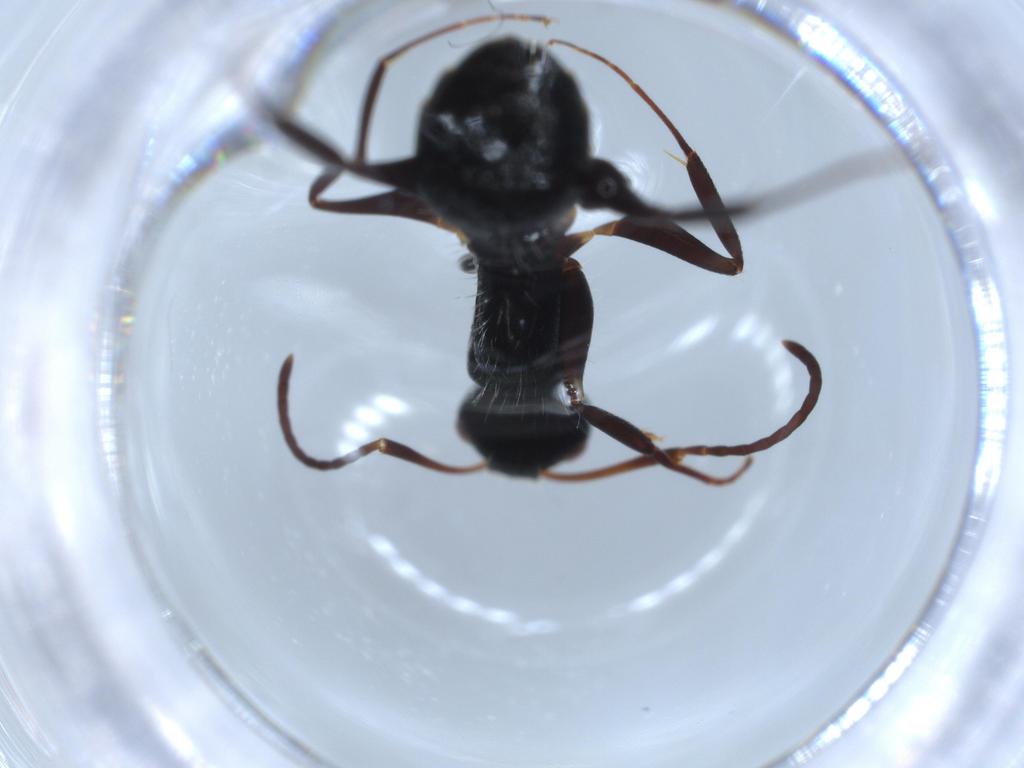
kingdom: Animalia
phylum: Arthropoda
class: Insecta
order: Hymenoptera
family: Formicidae
